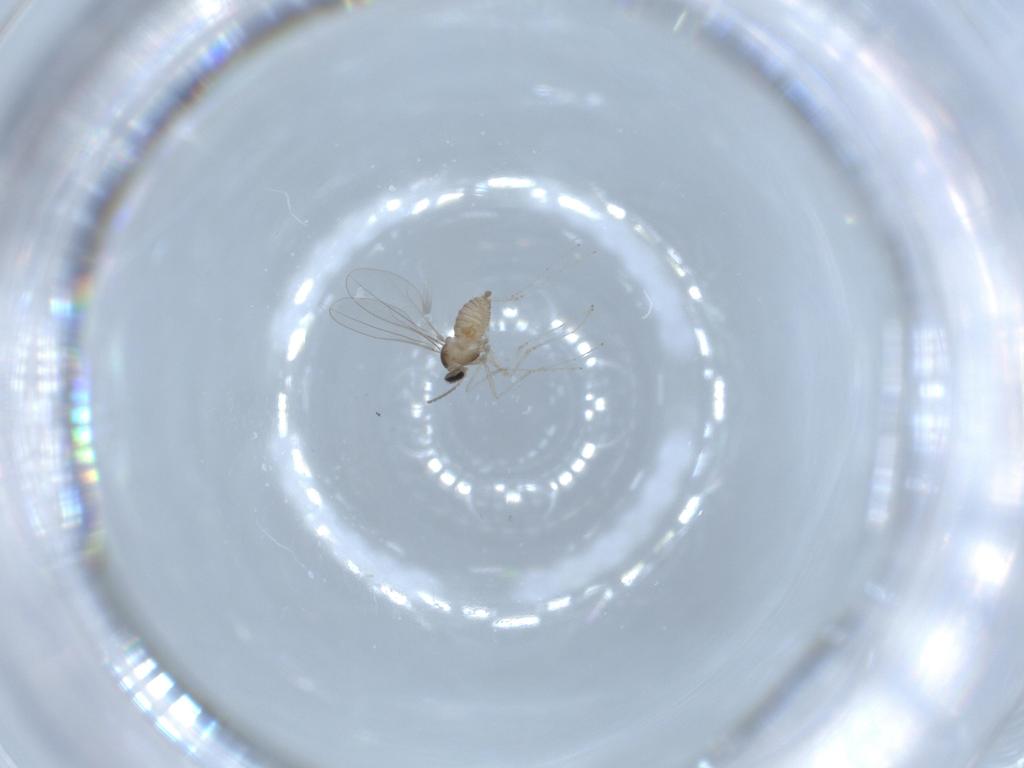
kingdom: Animalia
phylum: Arthropoda
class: Insecta
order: Diptera
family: Cecidomyiidae
